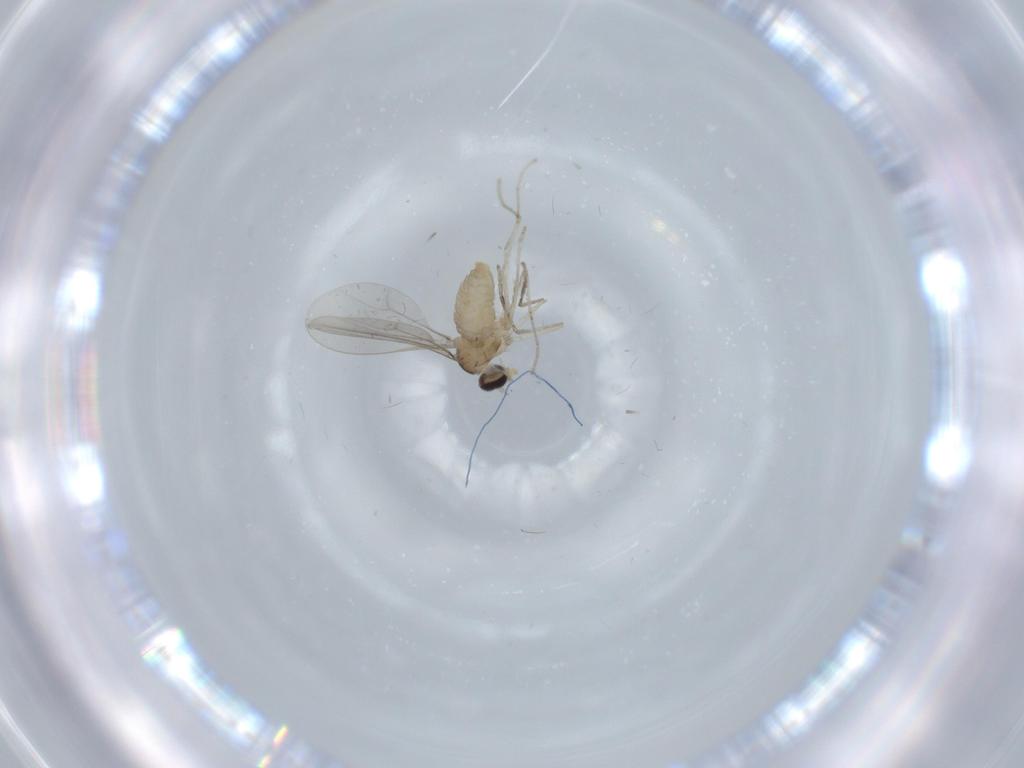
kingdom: Animalia
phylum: Arthropoda
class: Insecta
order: Diptera
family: Cecidomyiidae
